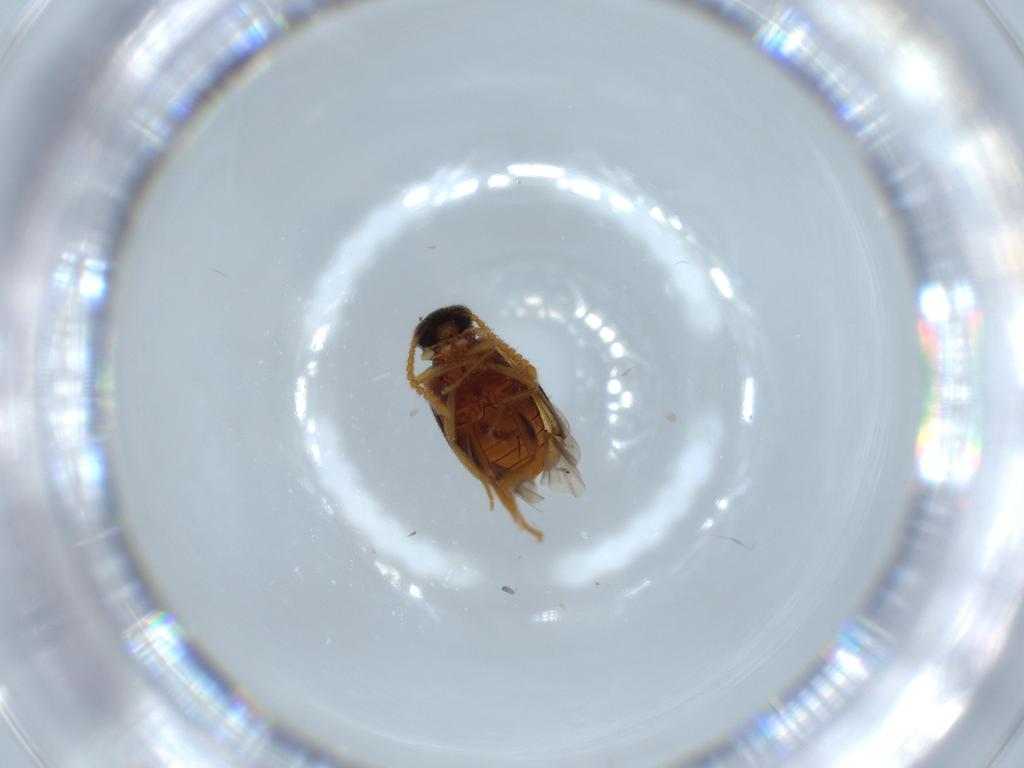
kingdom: Animalia
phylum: Arthropoda
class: Insecta
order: Coleoptera
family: Aderidae
